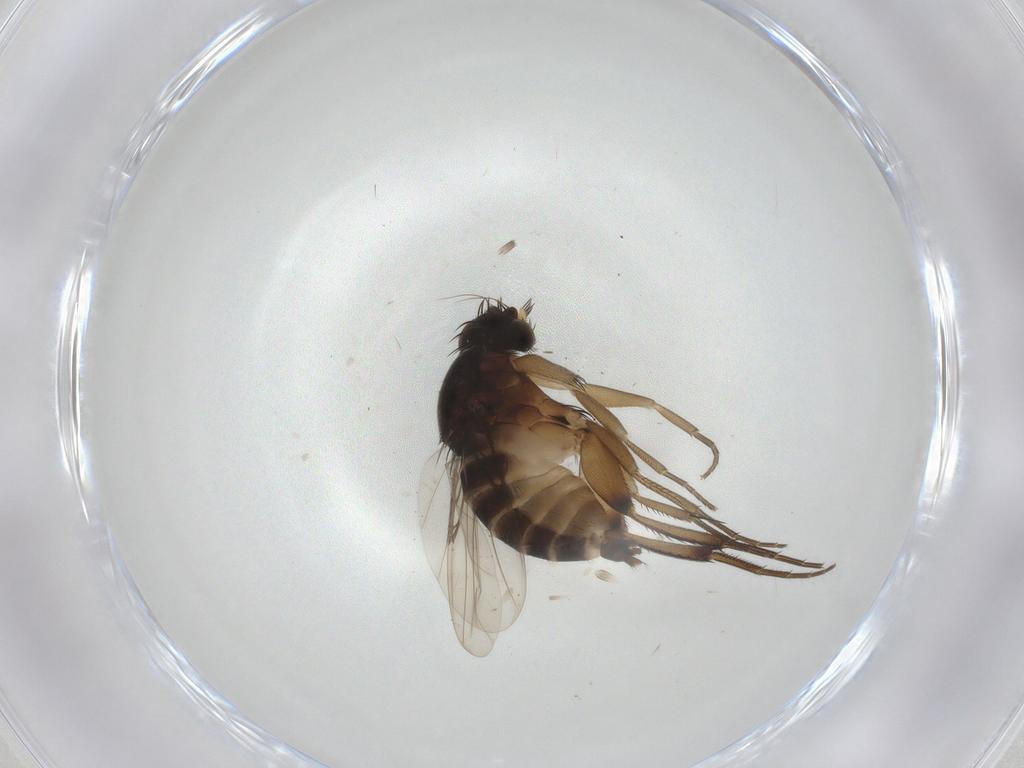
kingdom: Animalia
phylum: Arthropoda
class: Insecta
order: Diptera
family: Phoridae
